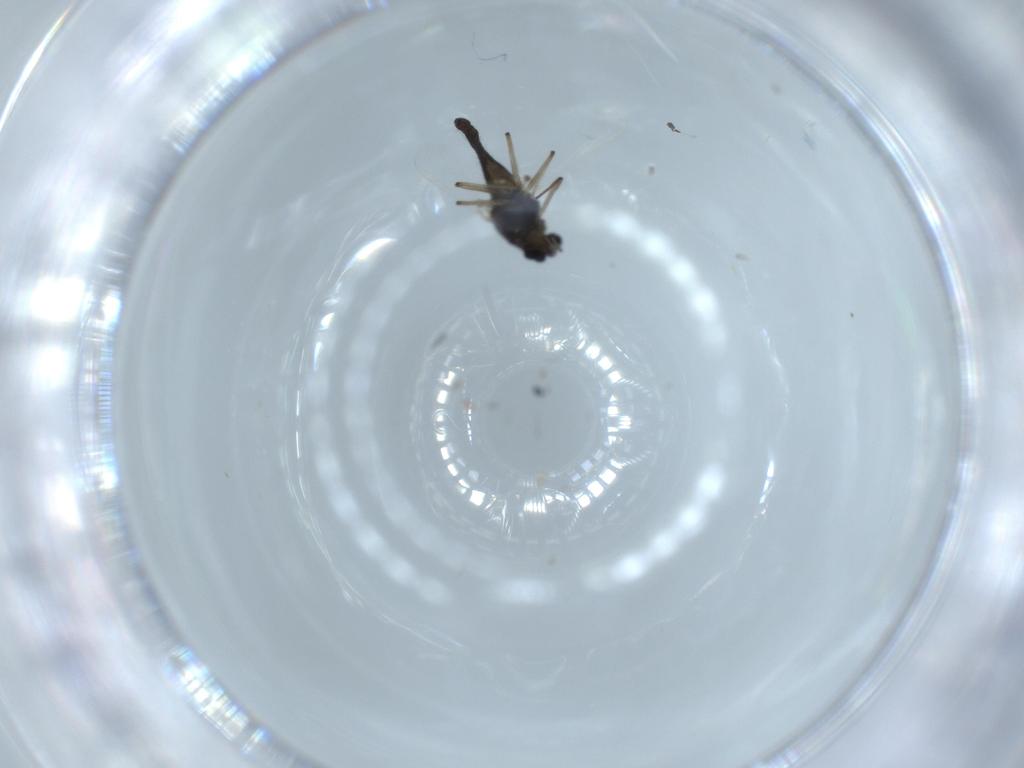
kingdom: Animalia
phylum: Arthropoda
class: Insecta
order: Diptera
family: Chironomidae
